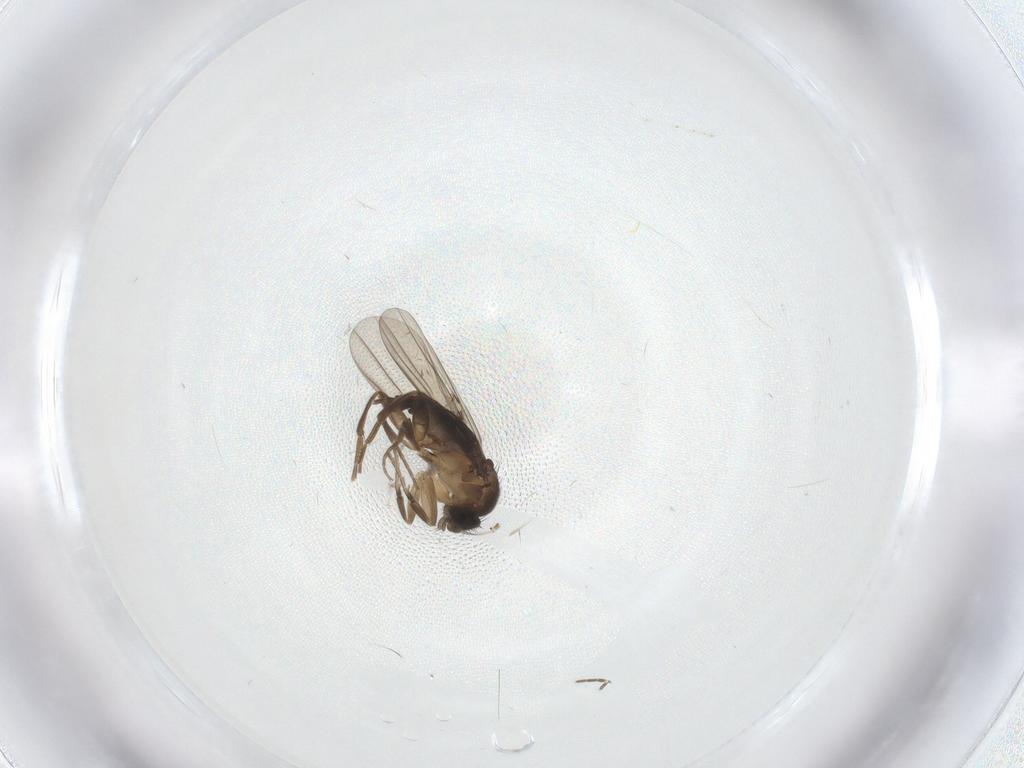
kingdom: Animalia
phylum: Arthropoda
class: Insecta
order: Diptera
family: Phoridae
